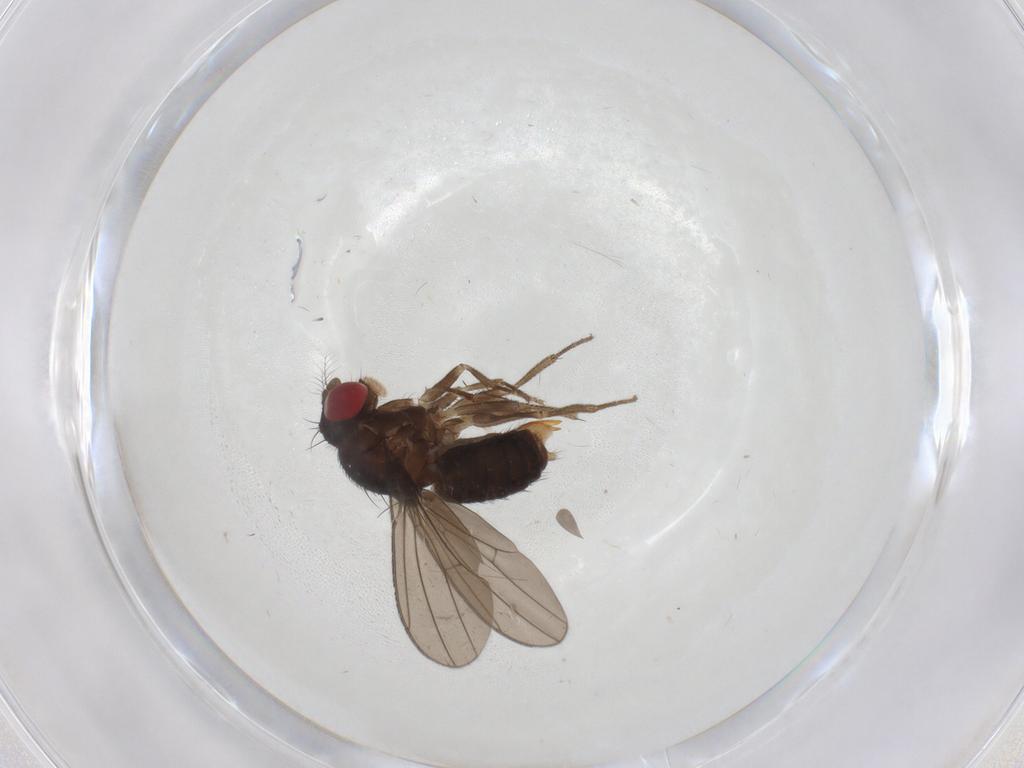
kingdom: Animalia
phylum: Arthropoda
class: Insecta
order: Diptera
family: Drosophilidae
